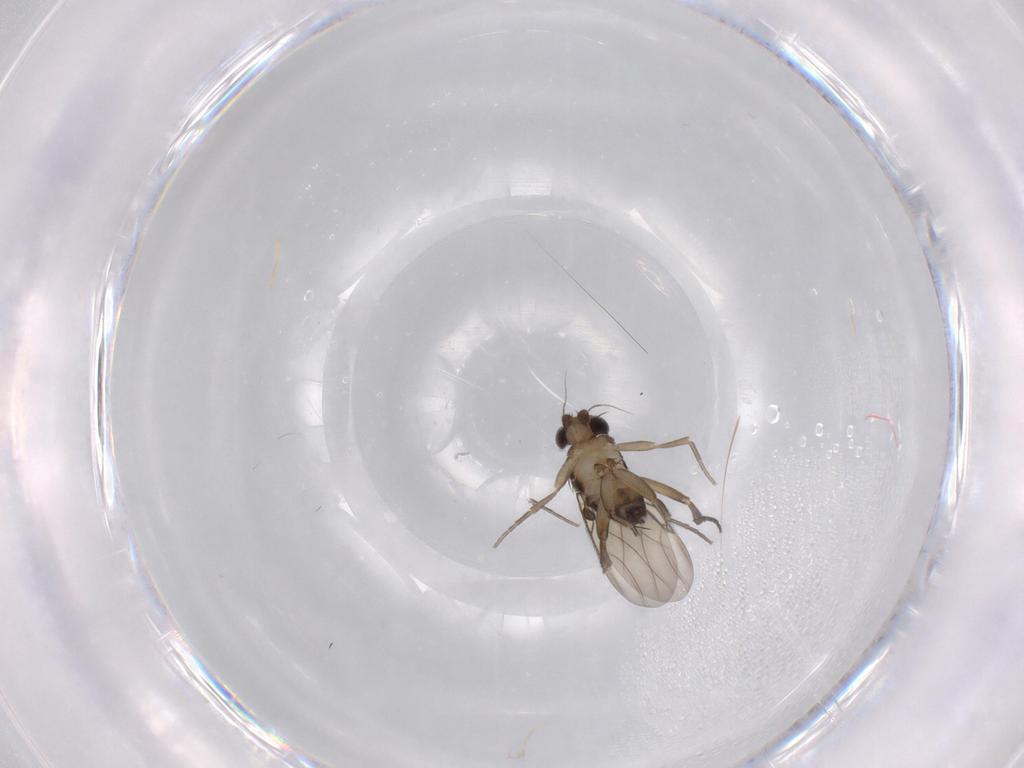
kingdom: Animalia
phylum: Arthropoda
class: Insecta
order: Diptera
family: Phoridae
